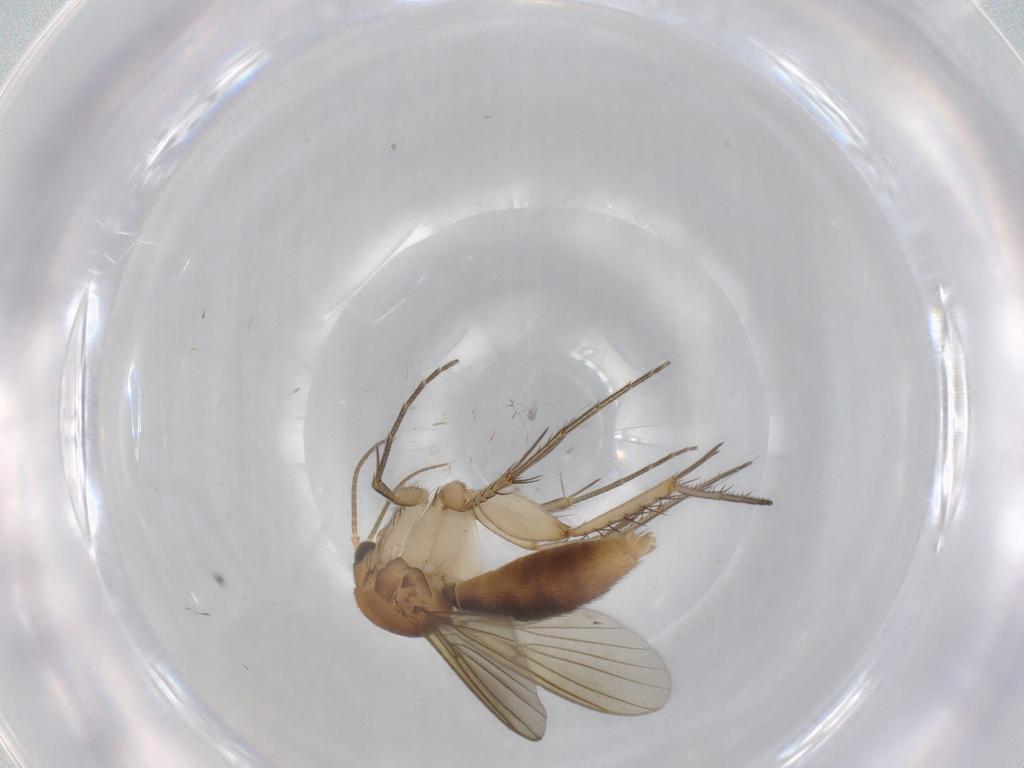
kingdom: Animalia
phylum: Arthropoda
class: Insecta
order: Diptera
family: Mycetophilidae
